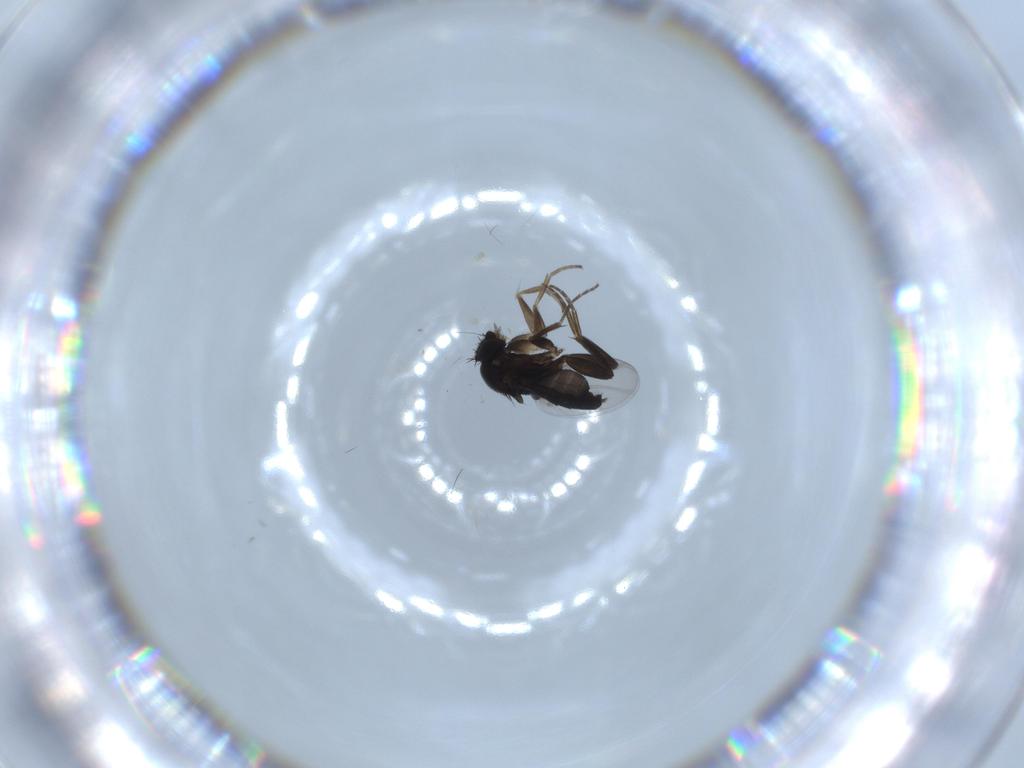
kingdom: Animalia
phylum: Arthropoda
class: Insecta
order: Diptera
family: Phoridae
